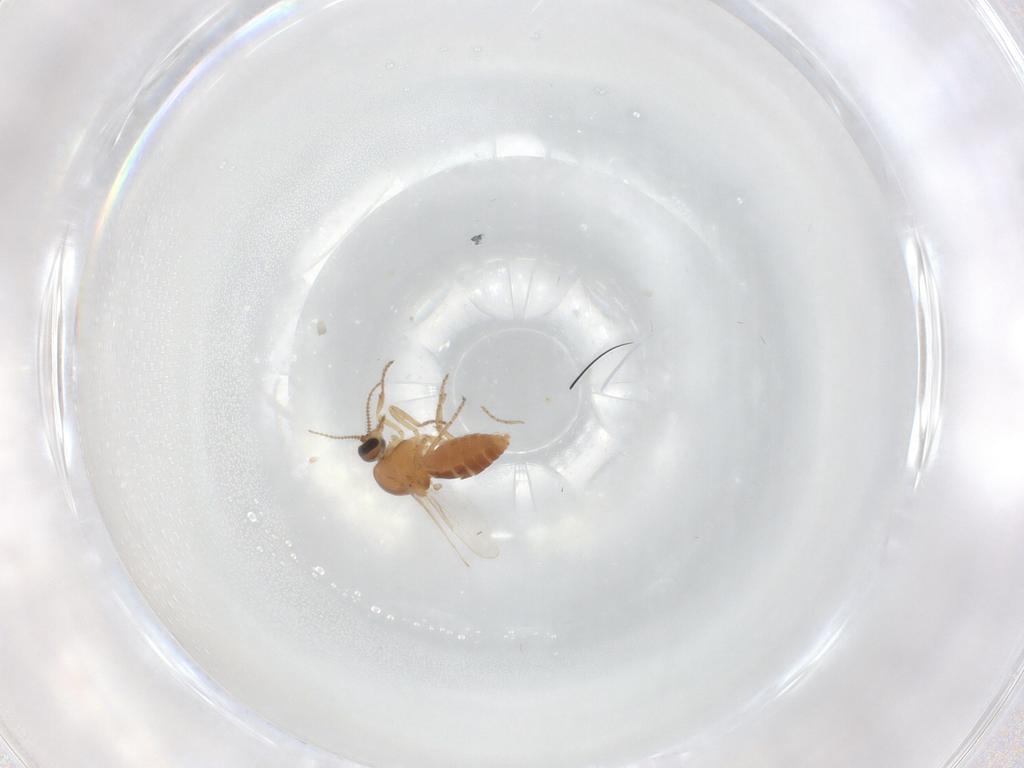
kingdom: Animalia
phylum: Arthropoda
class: Insecta
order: Diptera
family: Ceratopogonidae
